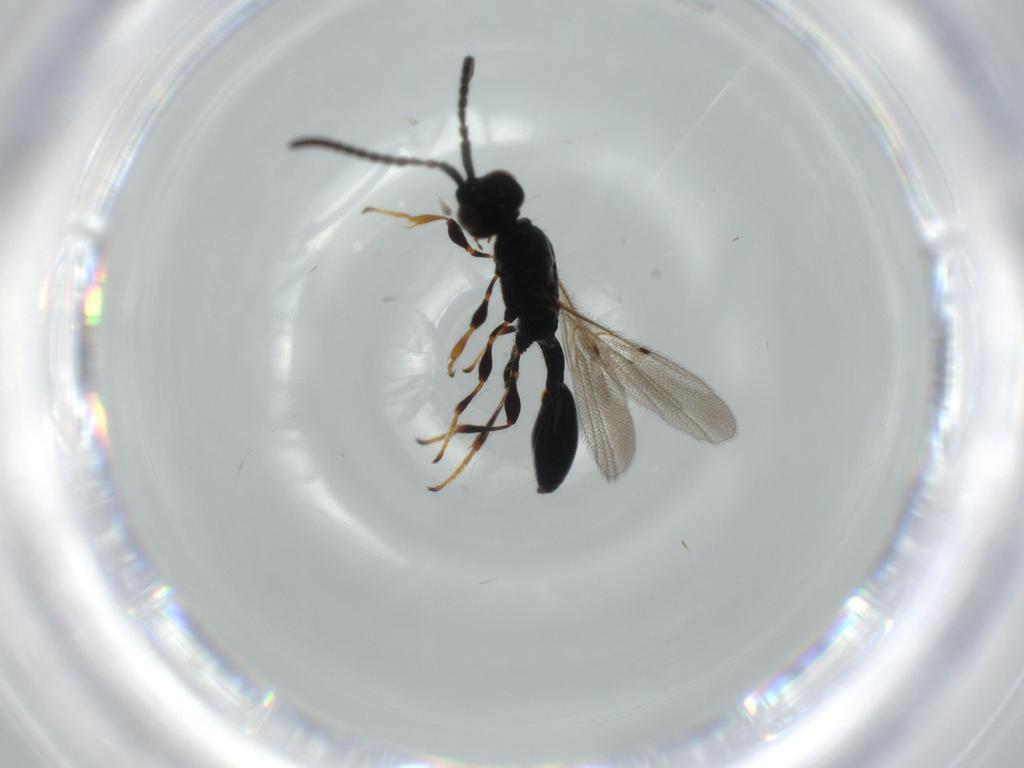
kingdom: Animalia
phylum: Arthropoda
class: Insecta
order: Hymenoptera
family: Diapriidae
